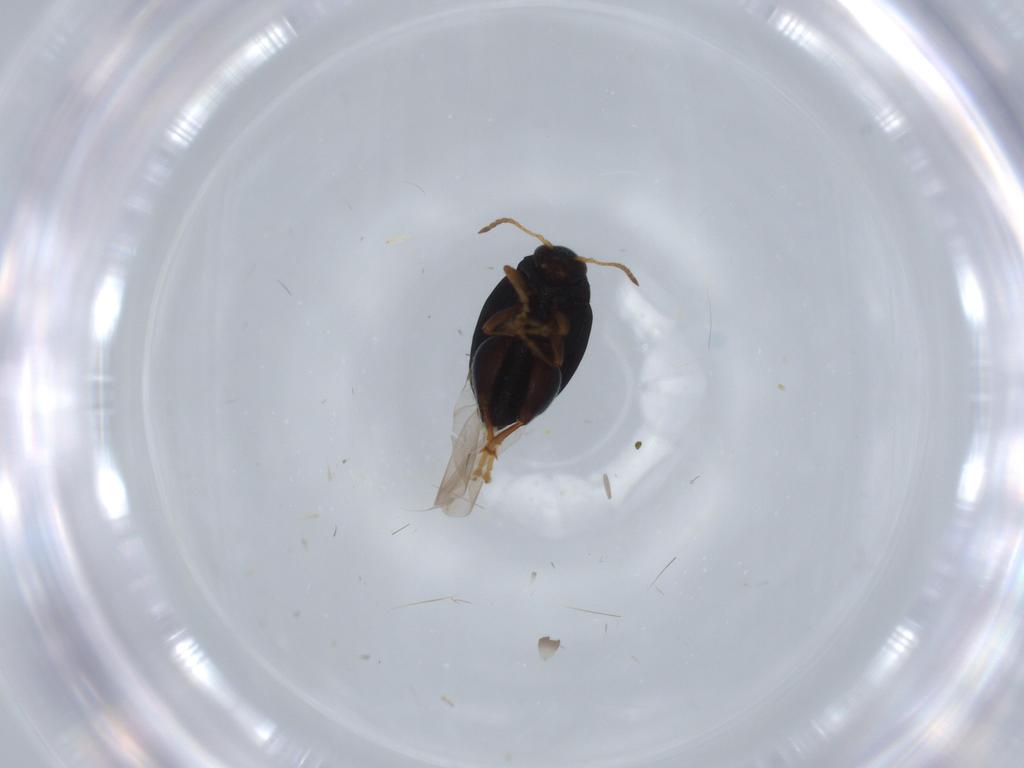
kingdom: Animalia
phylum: Arthropoda
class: Insecta
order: Coleoptera
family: Chrysomelidae
